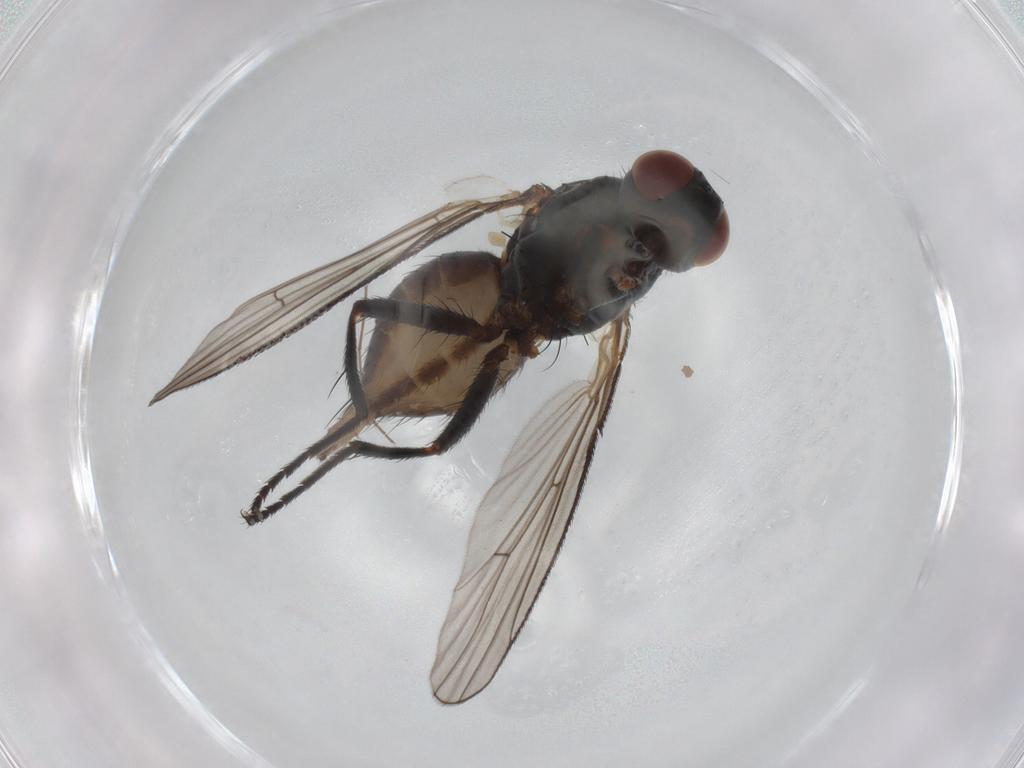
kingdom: Animalia
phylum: Arthropoda
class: Insecta
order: Diptera
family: Muscidae
